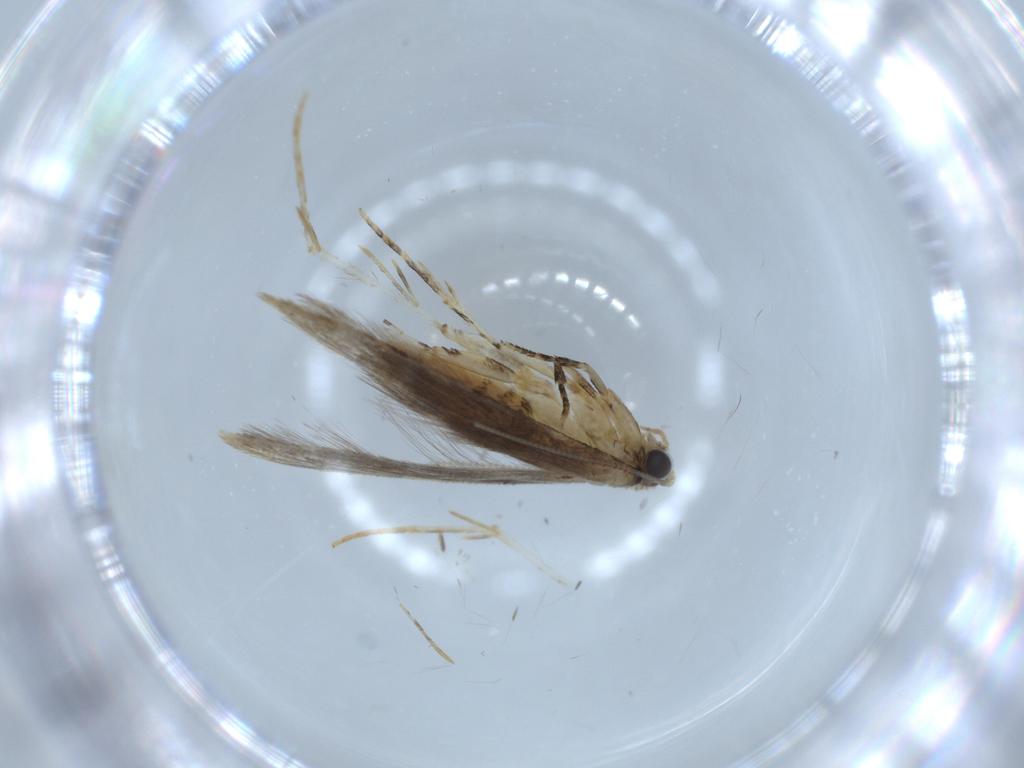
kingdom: Animalia
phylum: Arthropoda
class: Insecta
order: Lepidoptera
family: Tineidae
